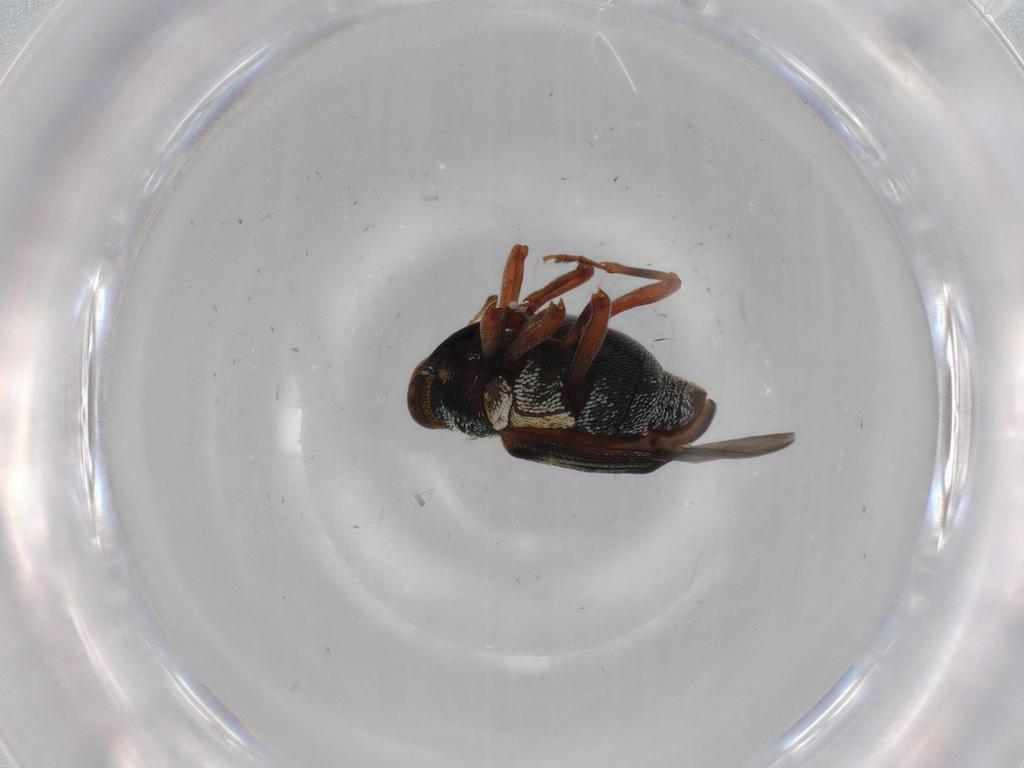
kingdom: Animalia
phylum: Arthropoda
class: Insecta
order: Coleoptera
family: Curculionidae
